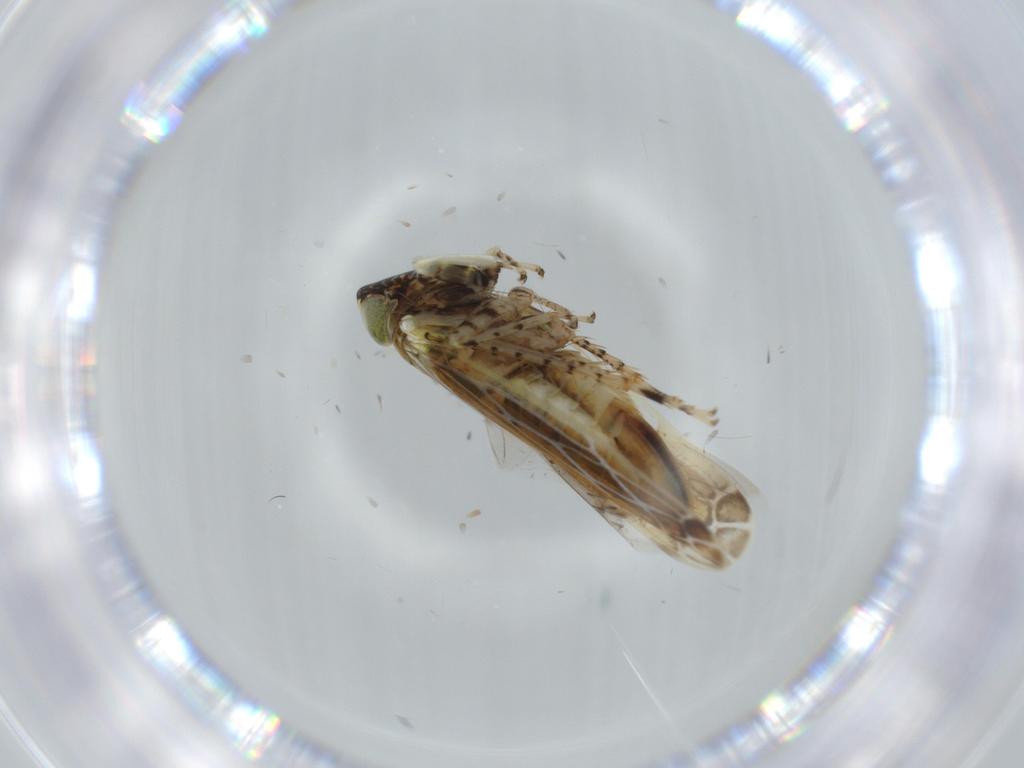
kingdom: Animalia
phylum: Arthropoda
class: Insecta
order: Hemiptera
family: Cicadellidae
